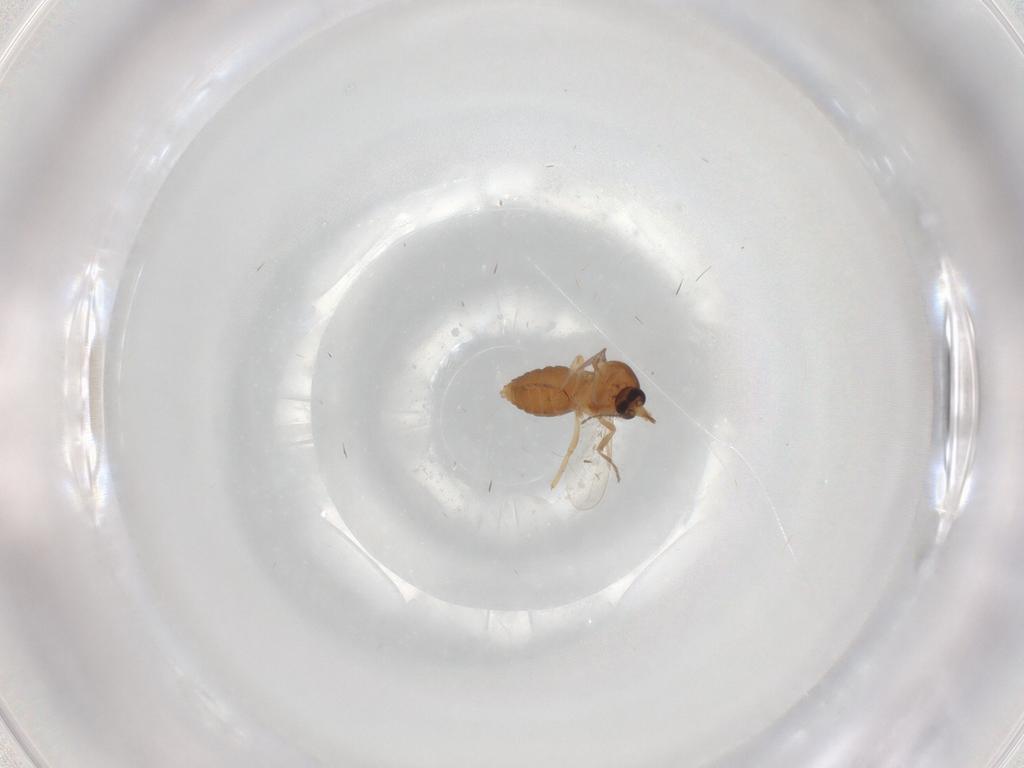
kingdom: Animalia
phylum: Arthropoda
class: Insecta
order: Diptera
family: Ceratopogonidae
